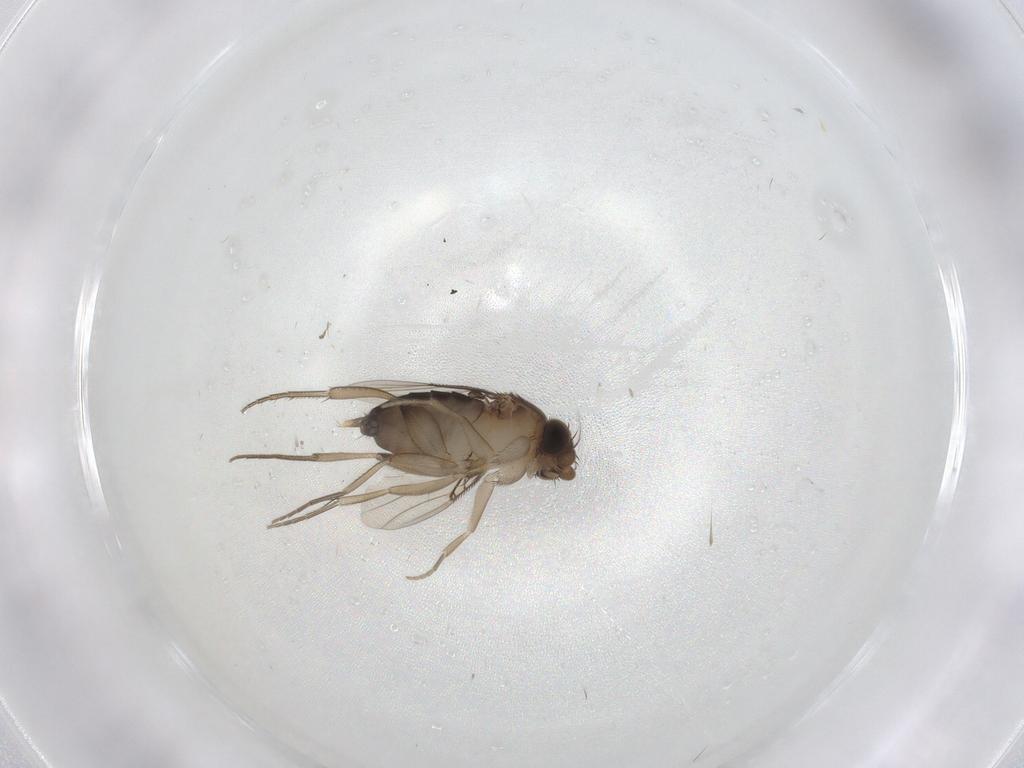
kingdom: Animalia
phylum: Arthropoda
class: Insecta
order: Diptera
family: Phoridae
